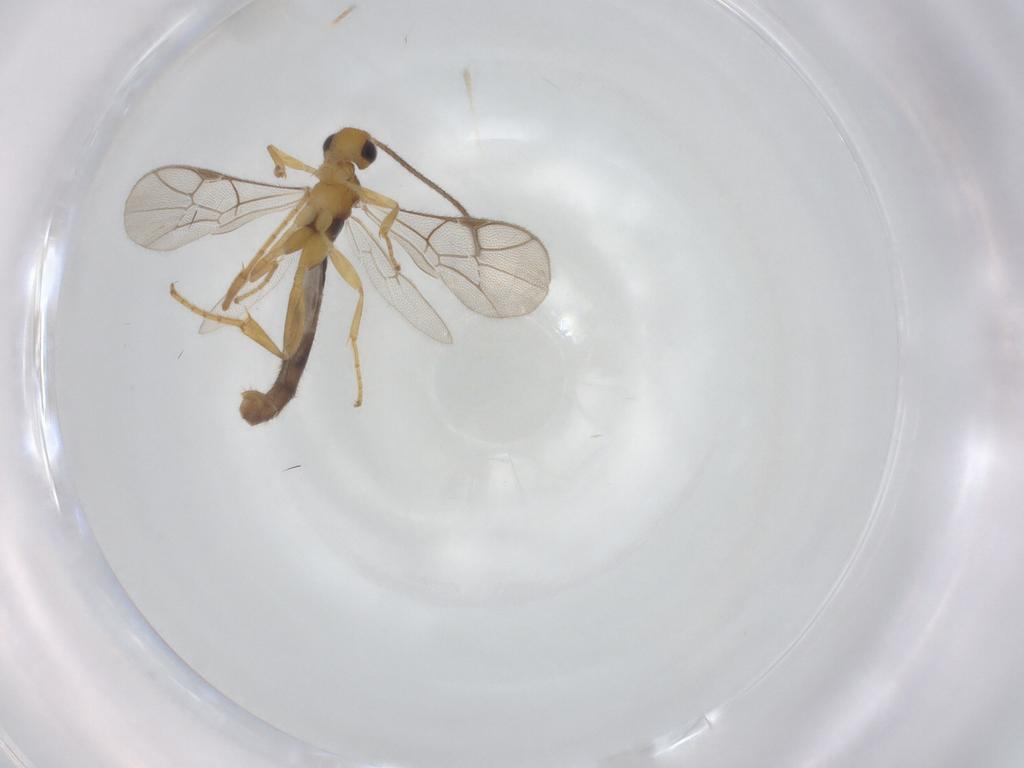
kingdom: Animalia
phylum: Arthropoda
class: Insecta
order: Hymenoptera
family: Ichneumonidae
